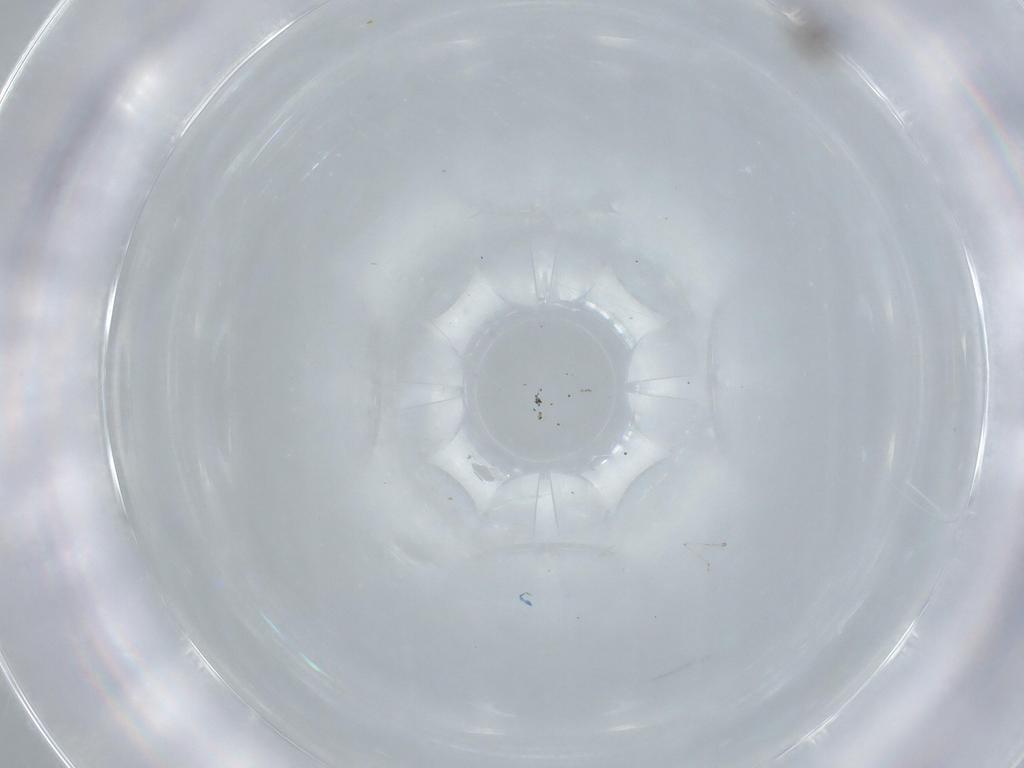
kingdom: Animalia
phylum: Arthropoda
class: Insecta
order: Diptera
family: Cecidomyiidae
